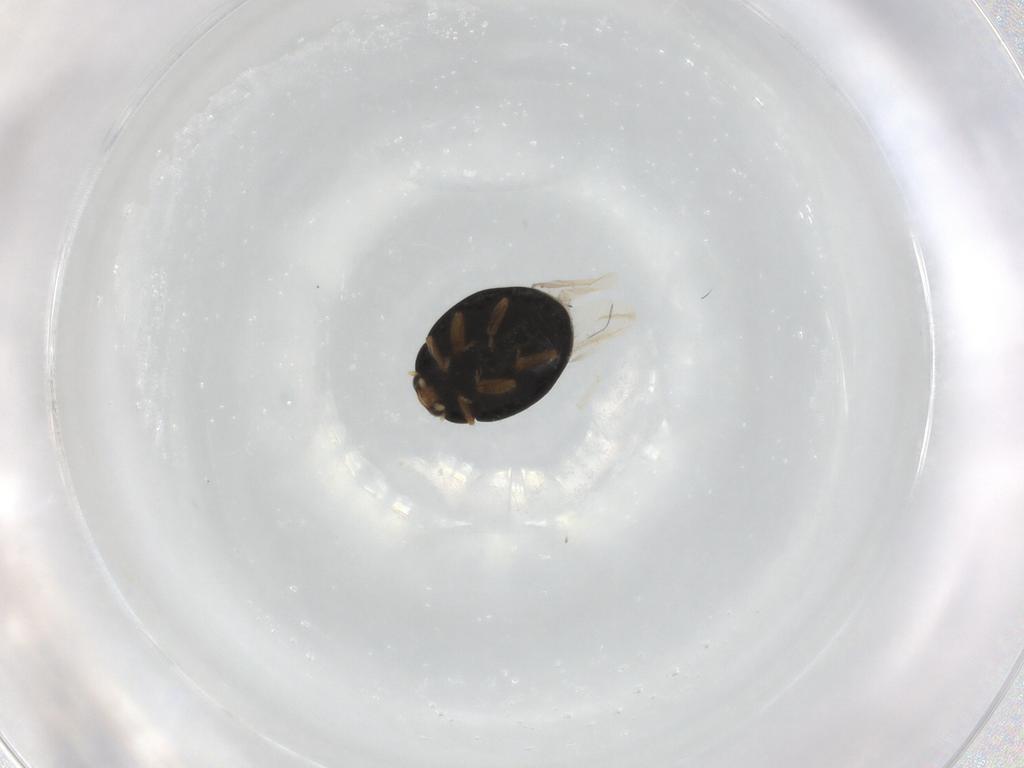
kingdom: Animalia
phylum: Arthropoda
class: Insecta
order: Coleoptera
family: Coccinellidae
